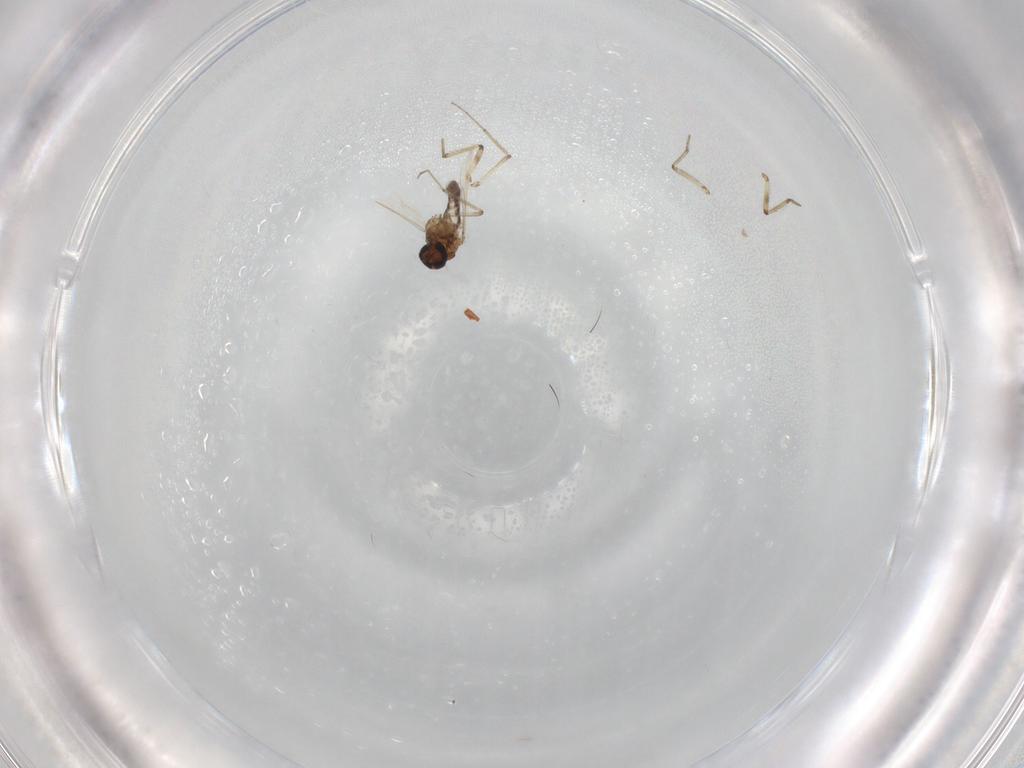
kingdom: Animalia
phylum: Arthropoda
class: Insecta
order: Diptera
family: Ceratopogonidae
